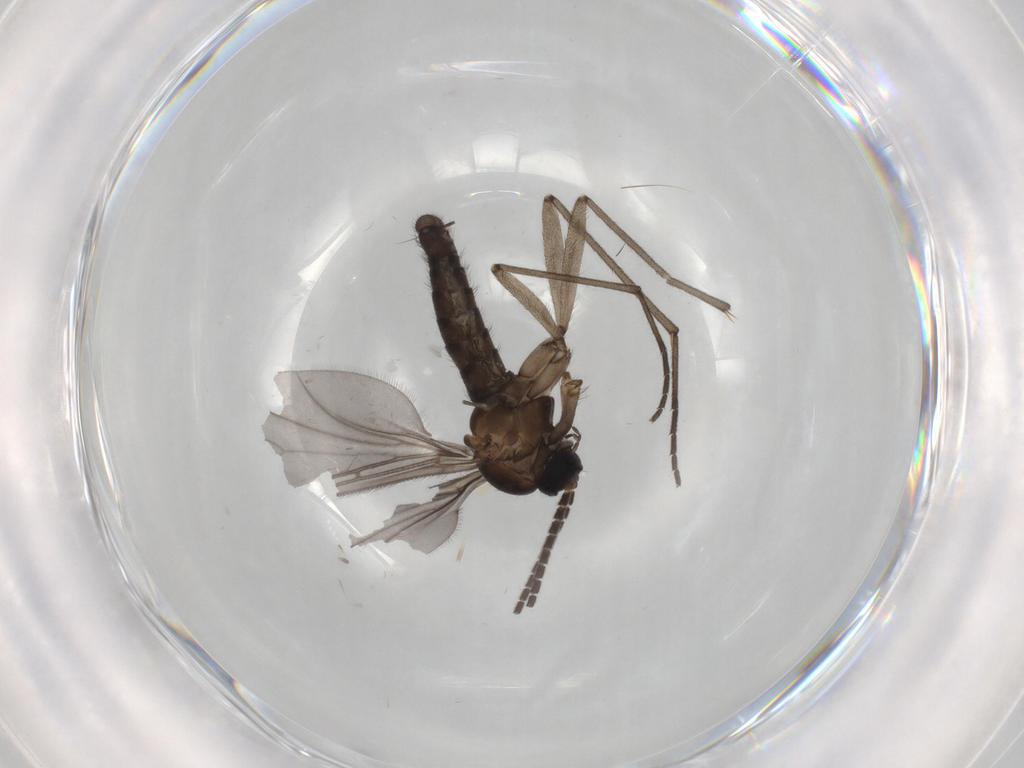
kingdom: Animalia
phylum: Arthropoda
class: Insecta
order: Diptera
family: Sciaridae
